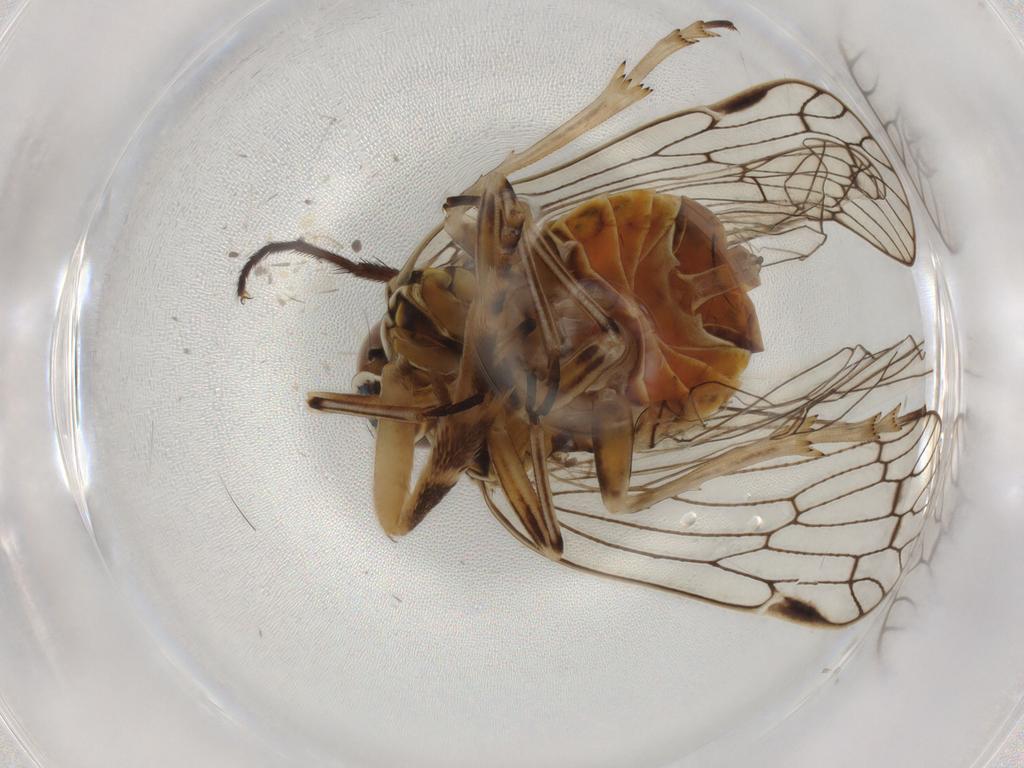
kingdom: Animalia
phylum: Arthropoda
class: Insecta
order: Hemiptera
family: Cixiidae
